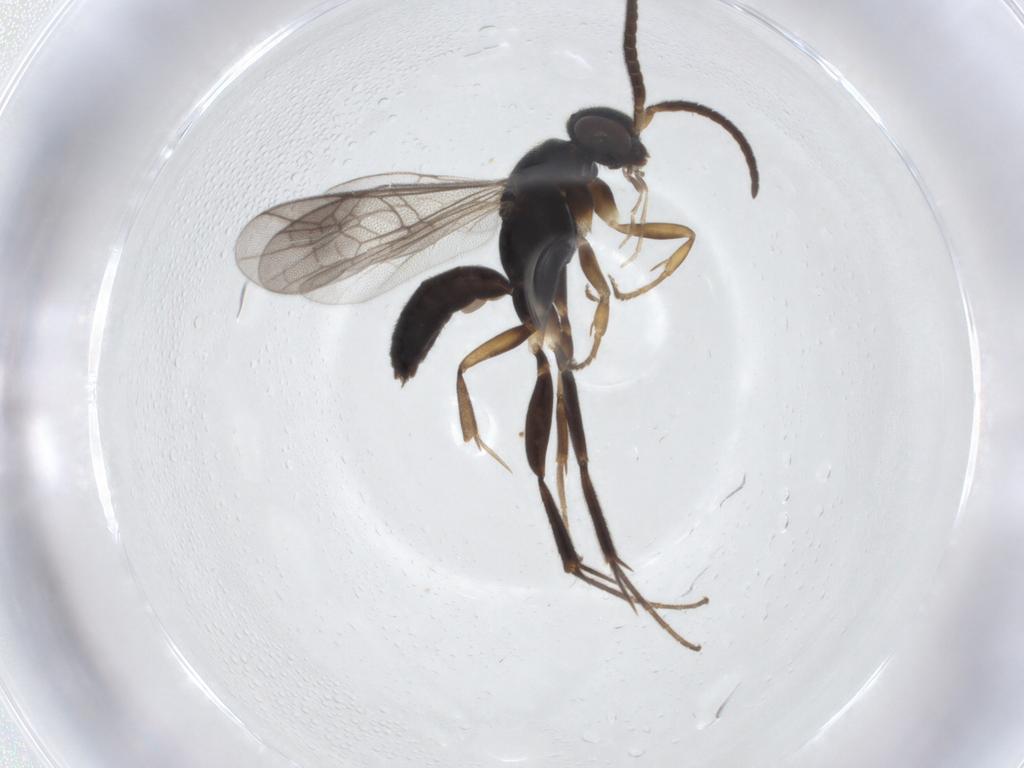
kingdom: Animalia
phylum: Arthropoda
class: Insecta
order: Hymenoptera
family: Pompilidae
